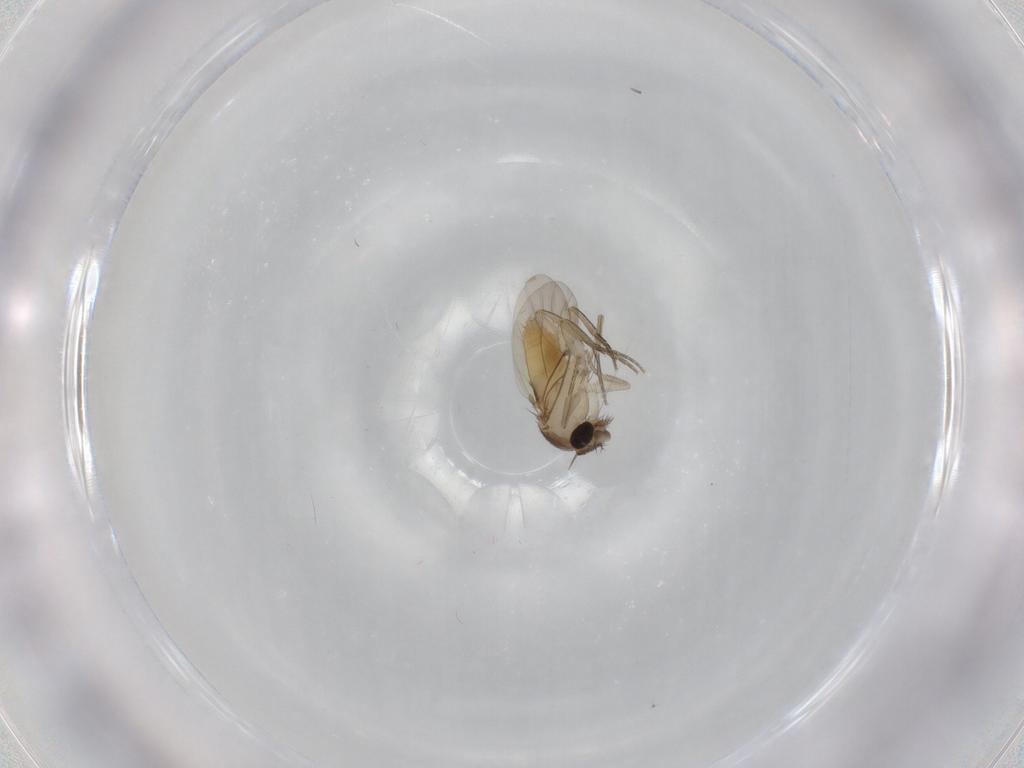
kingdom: Animalia
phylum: Arthropoda
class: Insecta
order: Diptera
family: Phoridae
